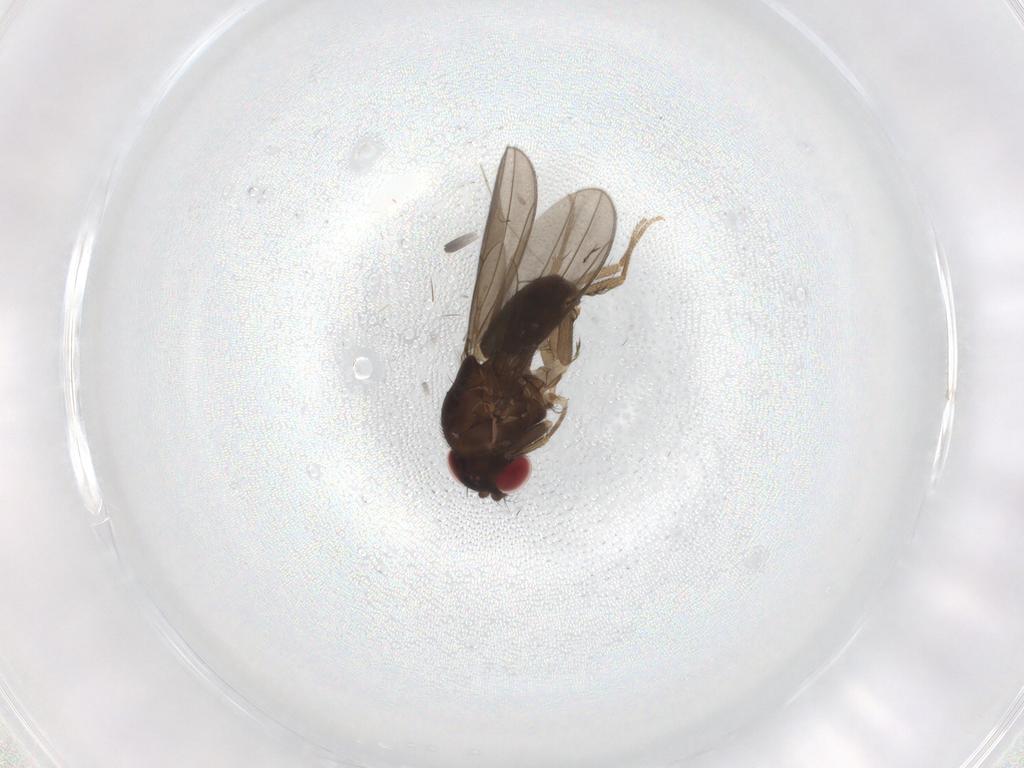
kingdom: Animalia
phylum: Arthropoda
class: Insecta
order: Diptera
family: Drosophilidae
